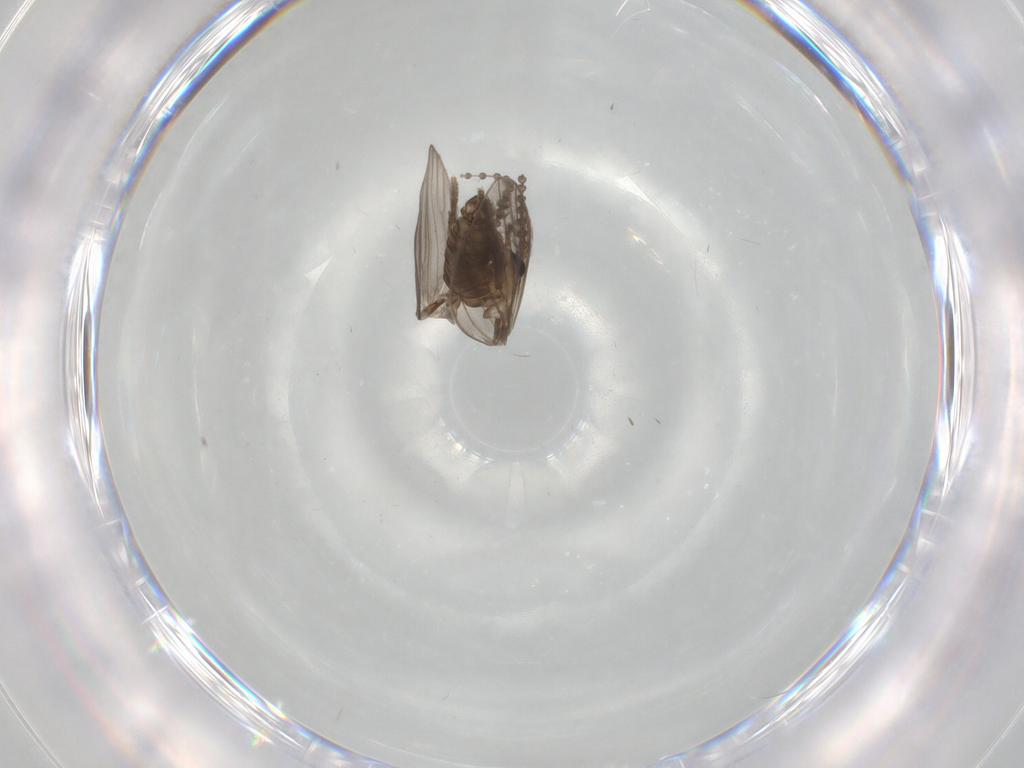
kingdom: Animalia
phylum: Arthropoda
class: Insecta
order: Diptera
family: Psychodidae
